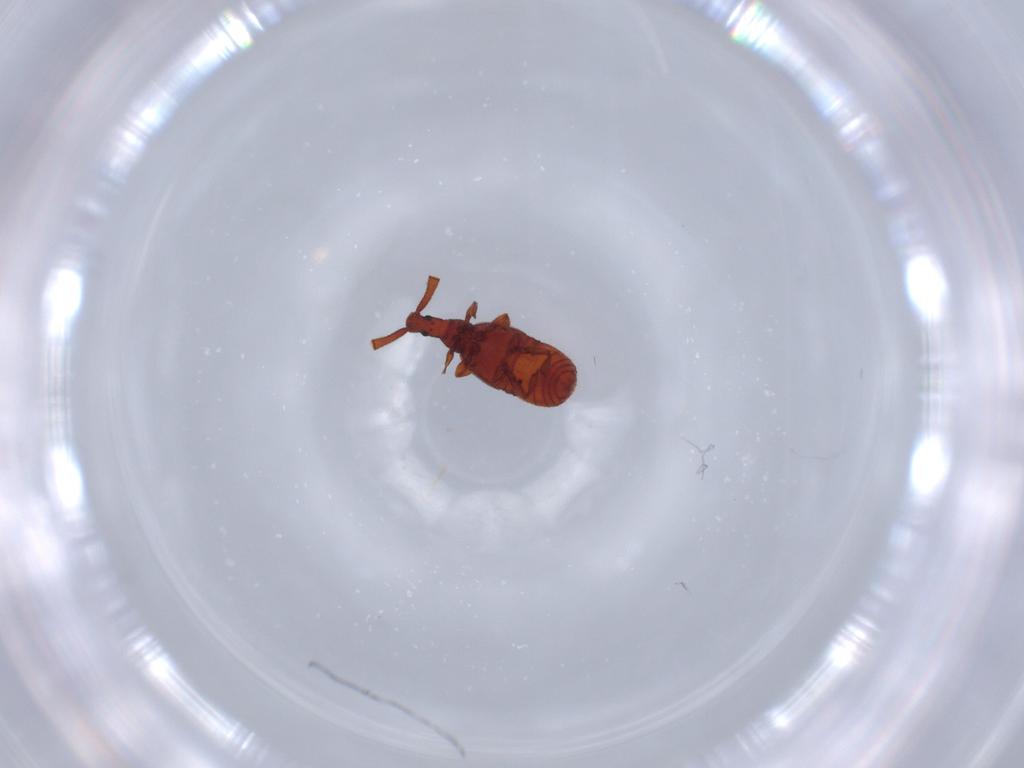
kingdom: Animalia
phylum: Arthropoda
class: Insecta
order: Coleoptera
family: Staphylinidae
